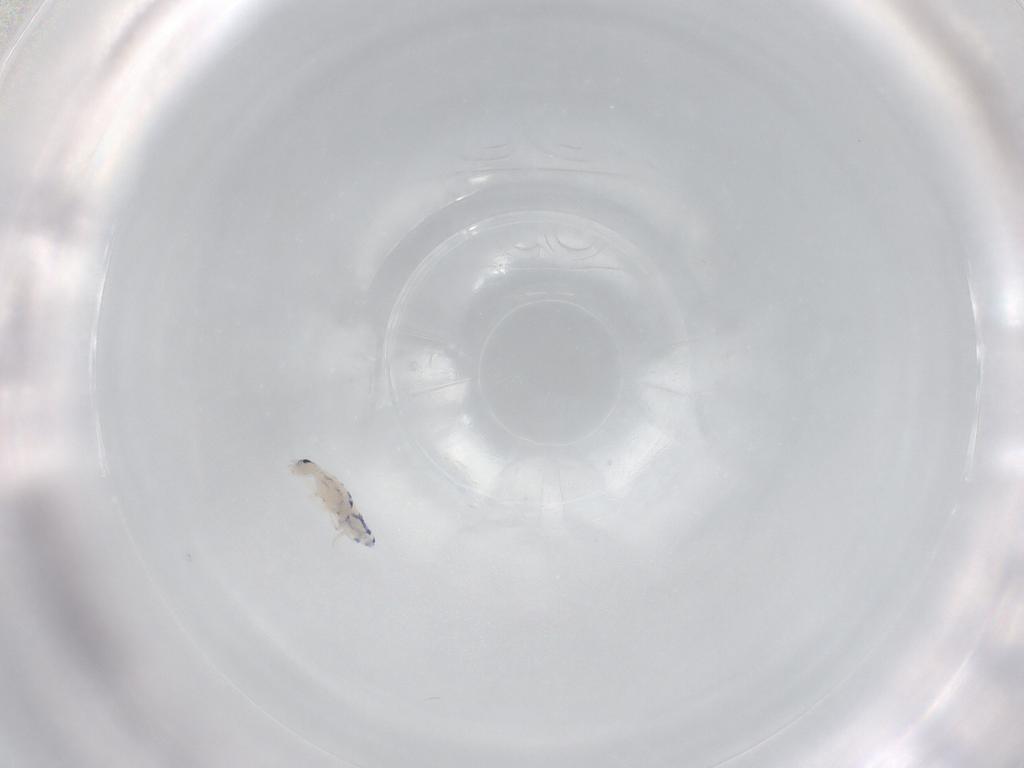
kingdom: Animalia
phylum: Arthropoda
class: Collembola
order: Entomobryomorpha
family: Entomobryidae
